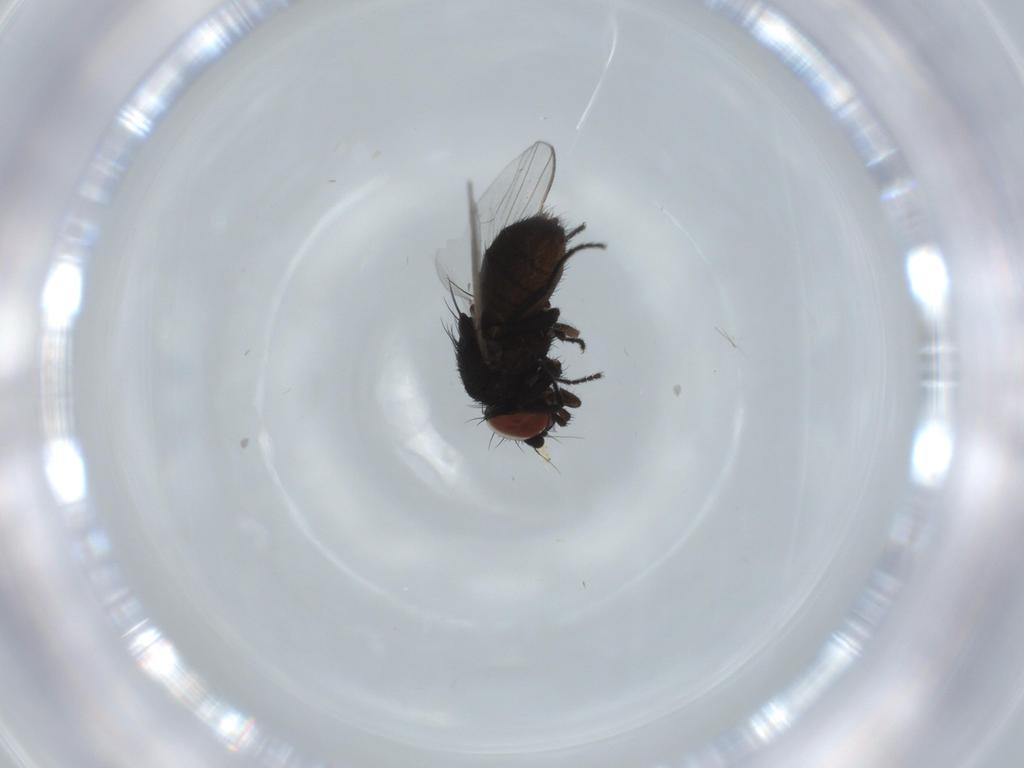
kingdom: Animalia
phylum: Arthropoda
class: Insecta
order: Diptera
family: Milichiidae
